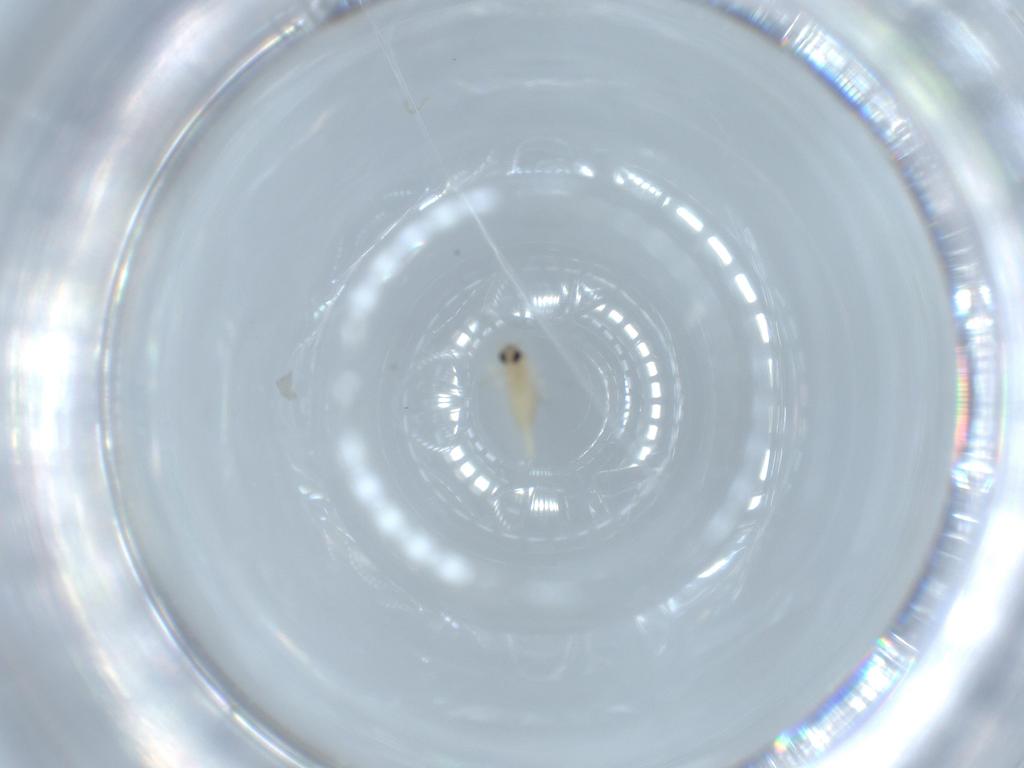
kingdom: Animalia
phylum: Arthropoda
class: Insecta
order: Diptera
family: Cecidomyiidae
